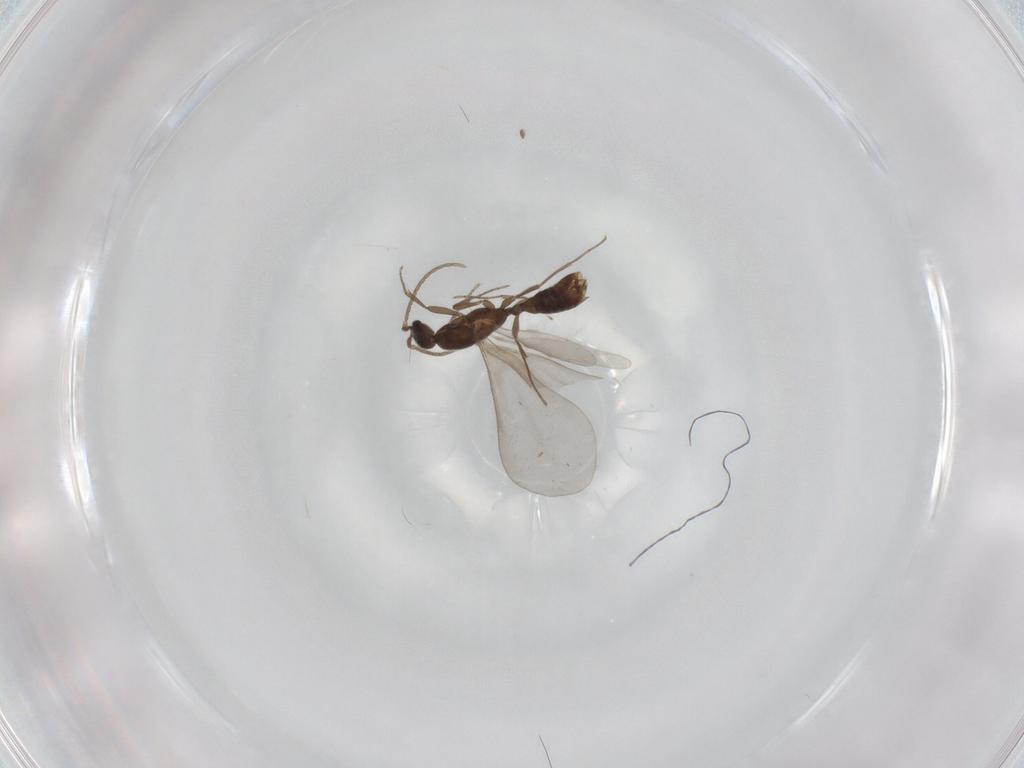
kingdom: Animalia
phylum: Arthropoda
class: Insecta
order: Hymenoptera
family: Formicidae
